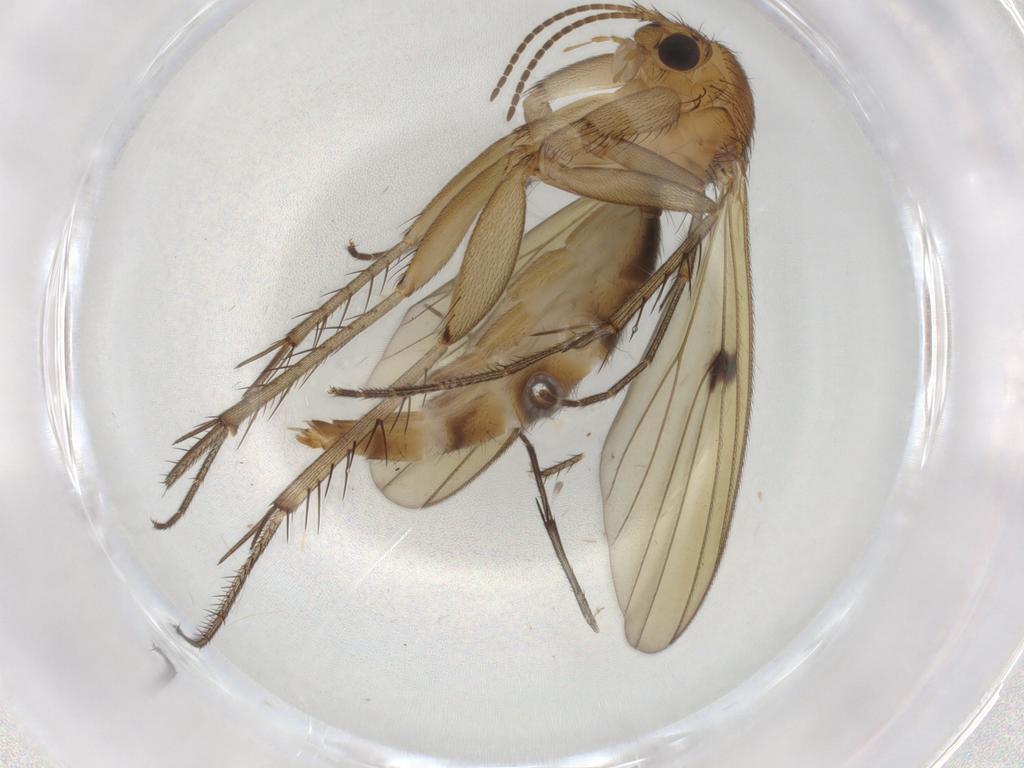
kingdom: Animalia
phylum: Arthropoda
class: Insecta
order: Diptera
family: Mycetophilidae
